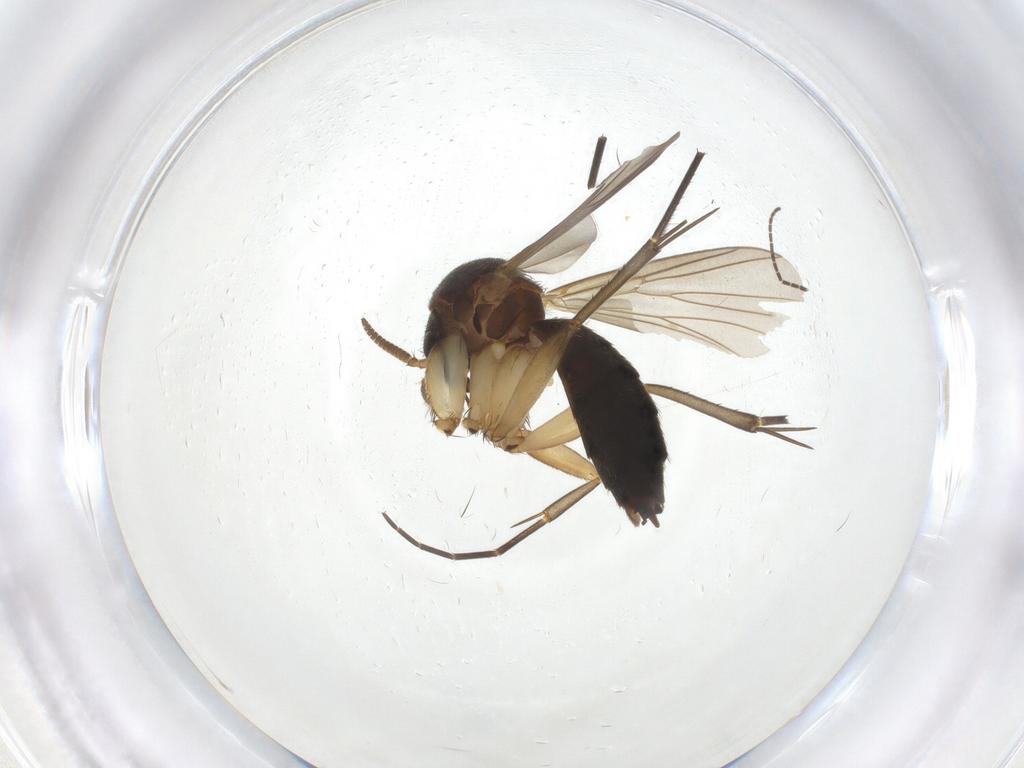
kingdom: Animalia
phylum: Arthropoda
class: Insecta
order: Diptera
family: Mycetophilidae
